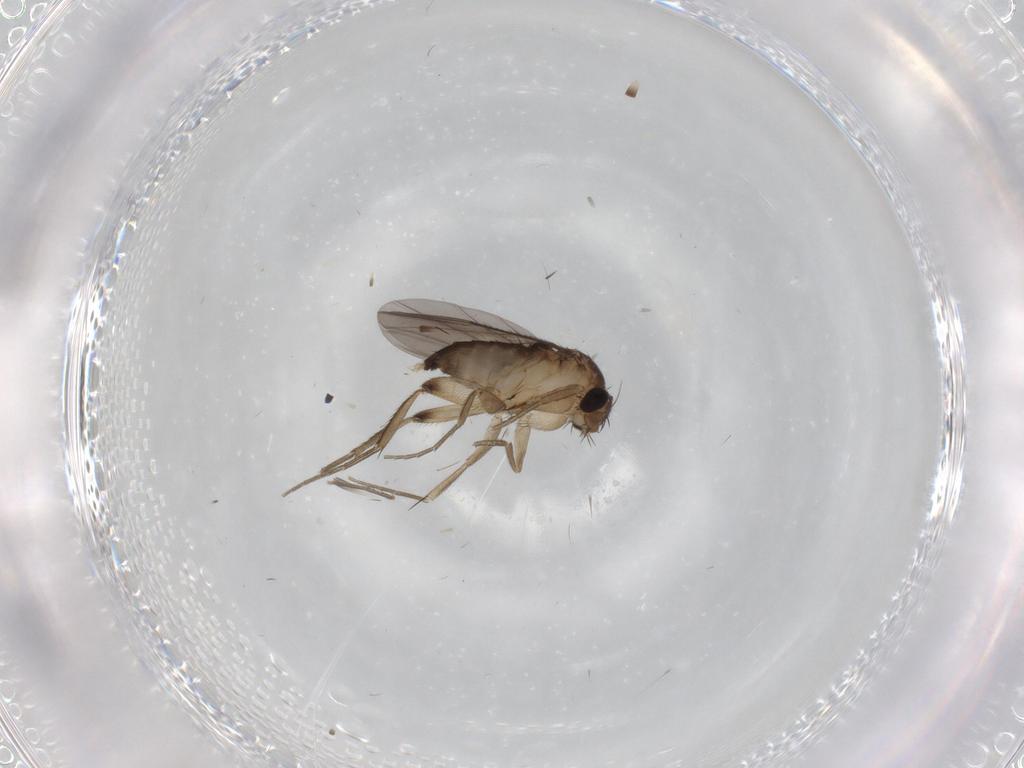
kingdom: Animalia
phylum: Arthropoda
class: Insecta
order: Diptera
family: Phoridae
